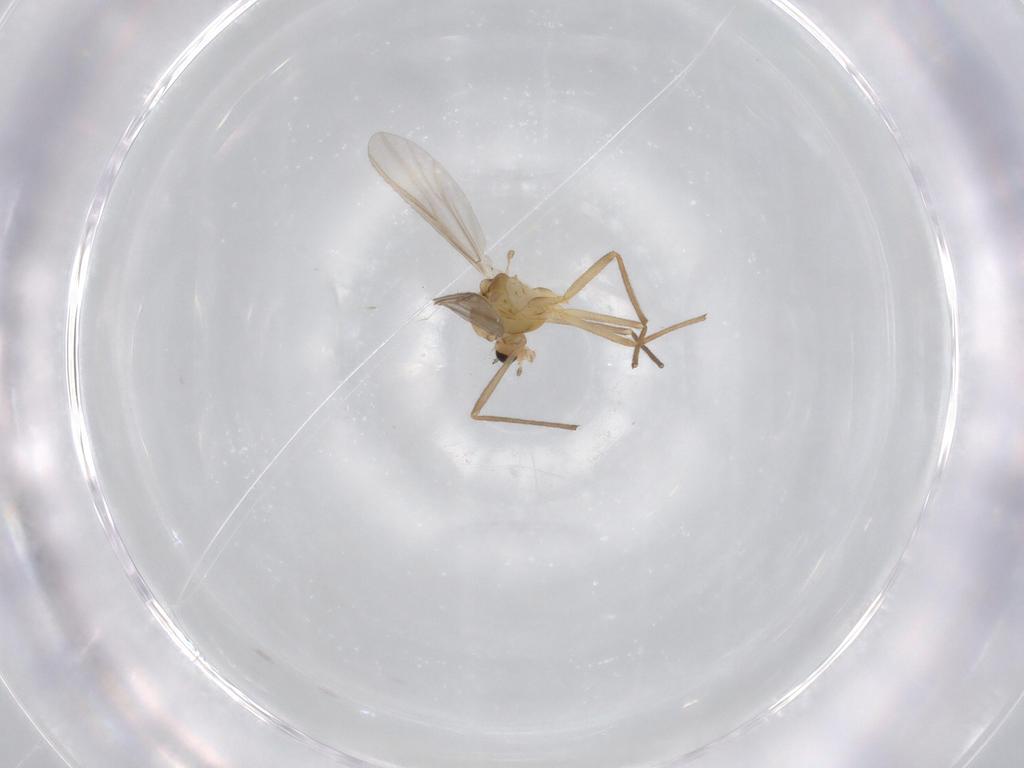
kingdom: Animalia
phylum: Arthropoda
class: Insecta
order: Diptera
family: Chironomidae
